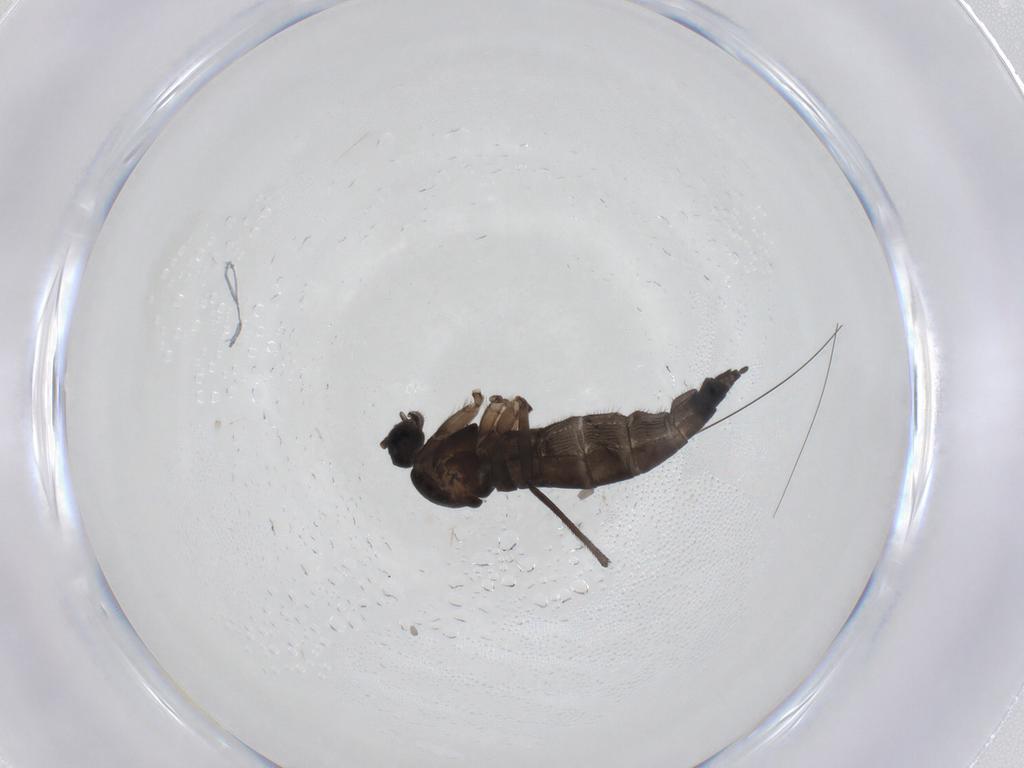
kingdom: Animalia
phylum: Arthropoda
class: Insecta
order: Diptera
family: Sciaridae
